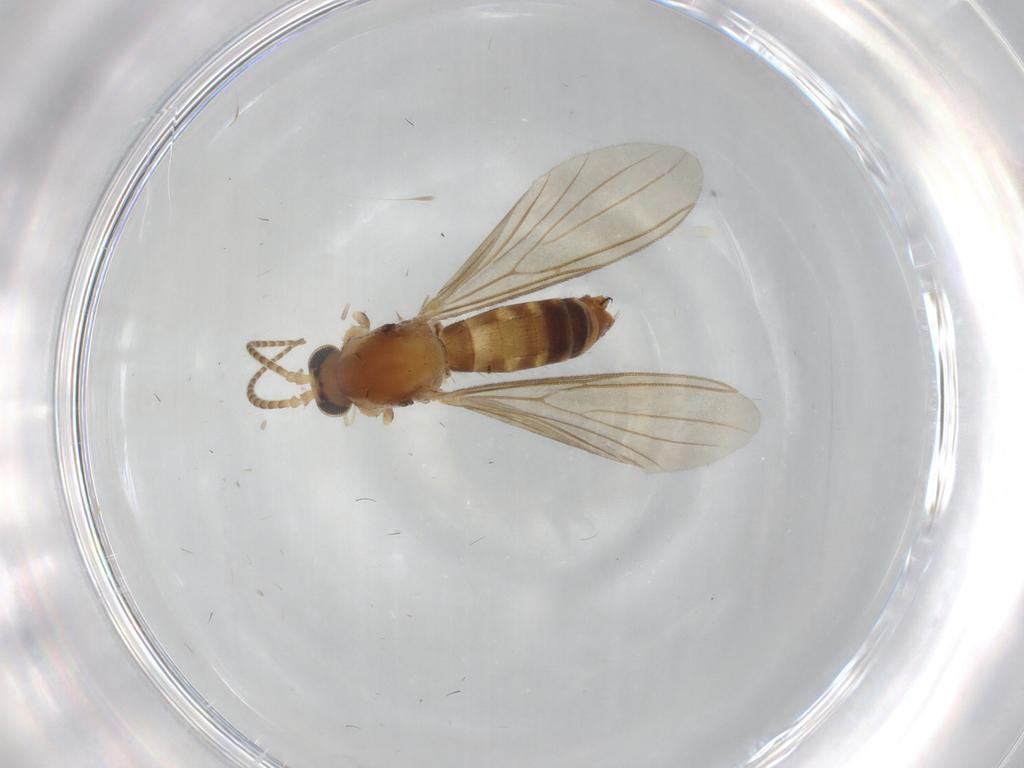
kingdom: Animalia
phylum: Arthropoda
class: Insecta
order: Diptera
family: Mycetophilidae
